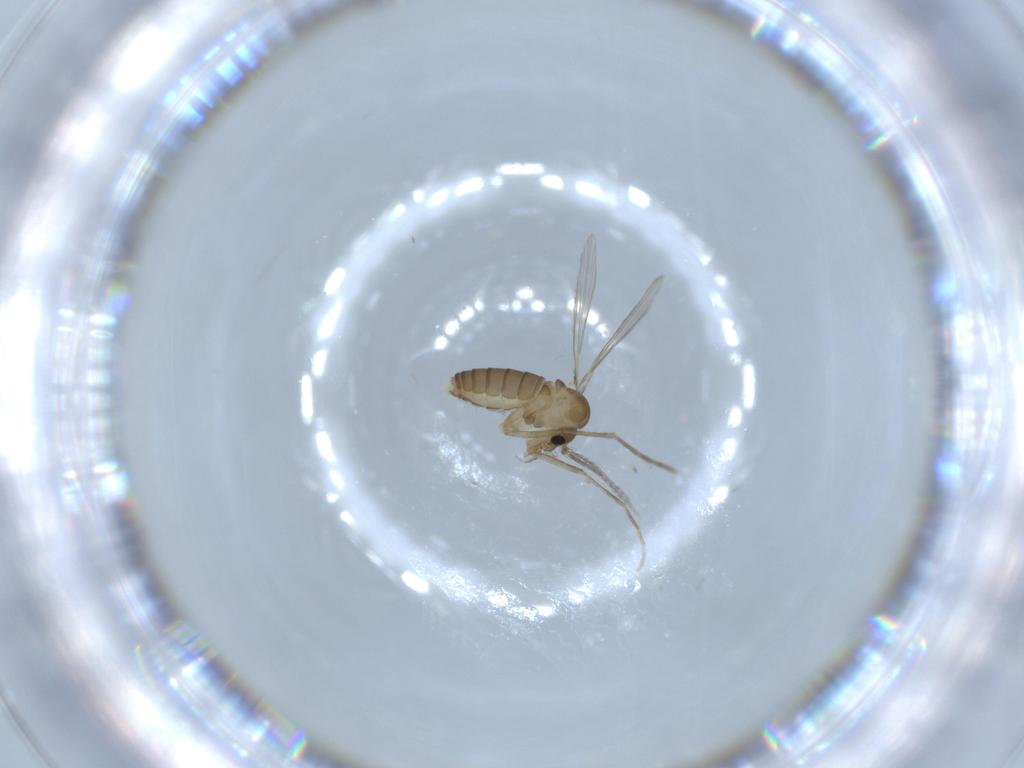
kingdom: Animalia
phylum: Arthropoda
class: Insecta
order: Diptera
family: Psychodidae
